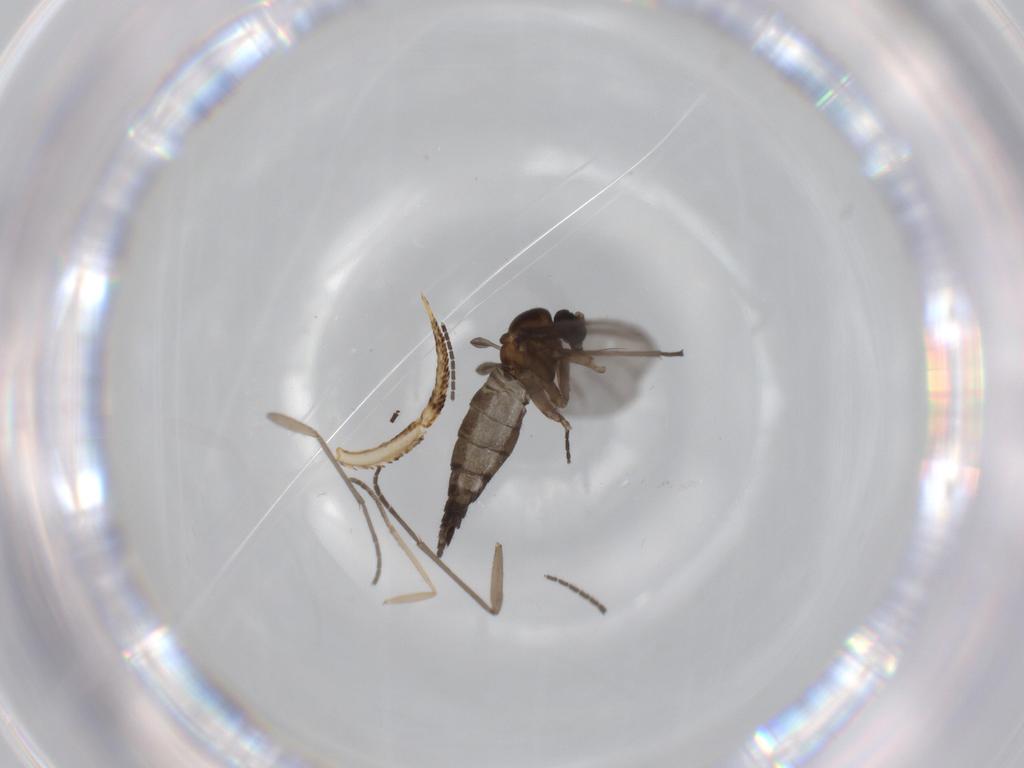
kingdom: Animalia
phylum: Arthropoda
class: Insecta
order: Diptera
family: Sciaridae
